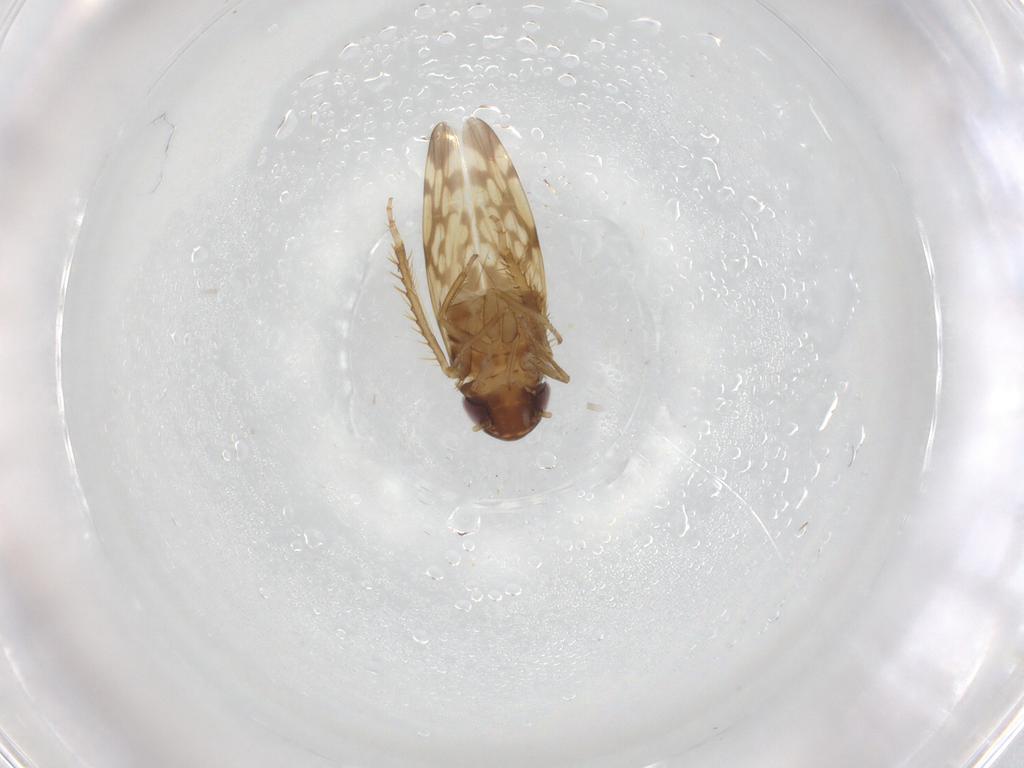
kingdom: Animalia
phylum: Arthropoda
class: Insecta
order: Hemiptera
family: Cicadellidae
